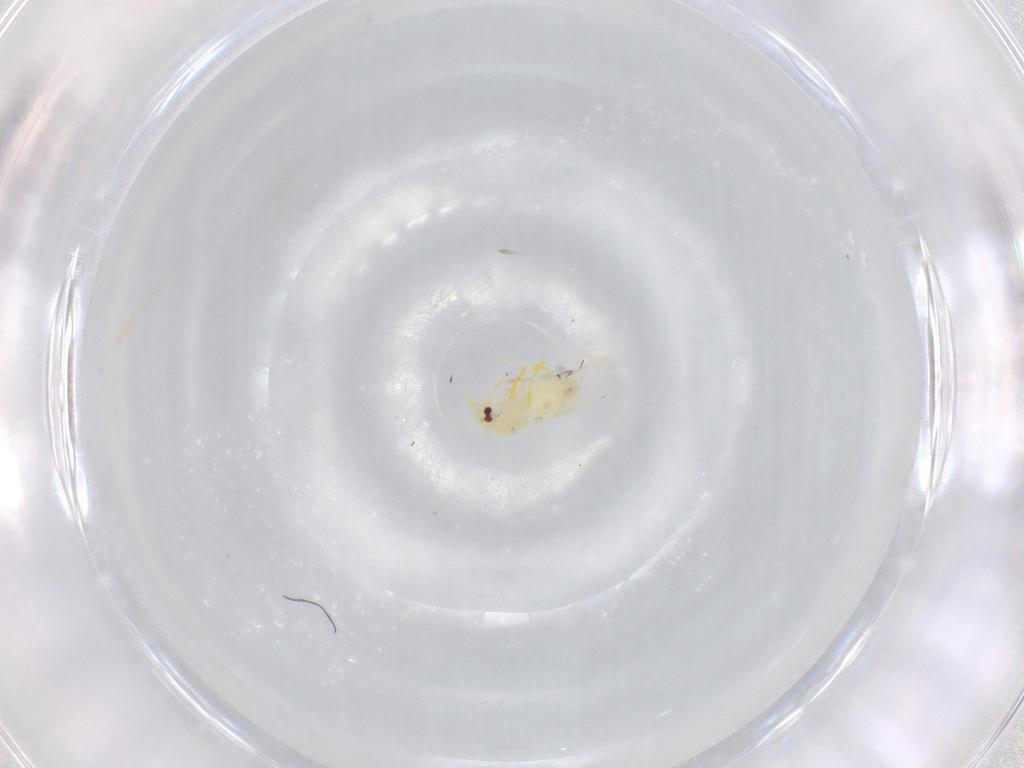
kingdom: Animalia
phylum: Arthropoda
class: Insecta
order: Hemiptera
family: Aleyrodidae
